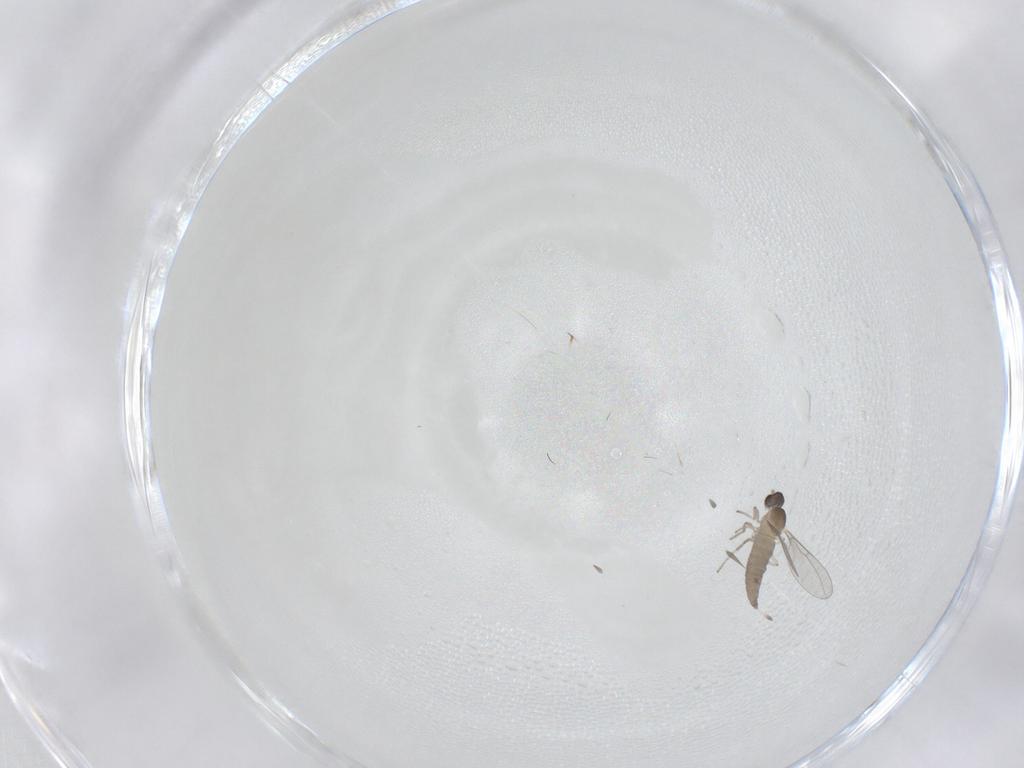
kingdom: Animalia
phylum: Arthropoda
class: Insecta
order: Diptera
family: Cecidomyiidae
